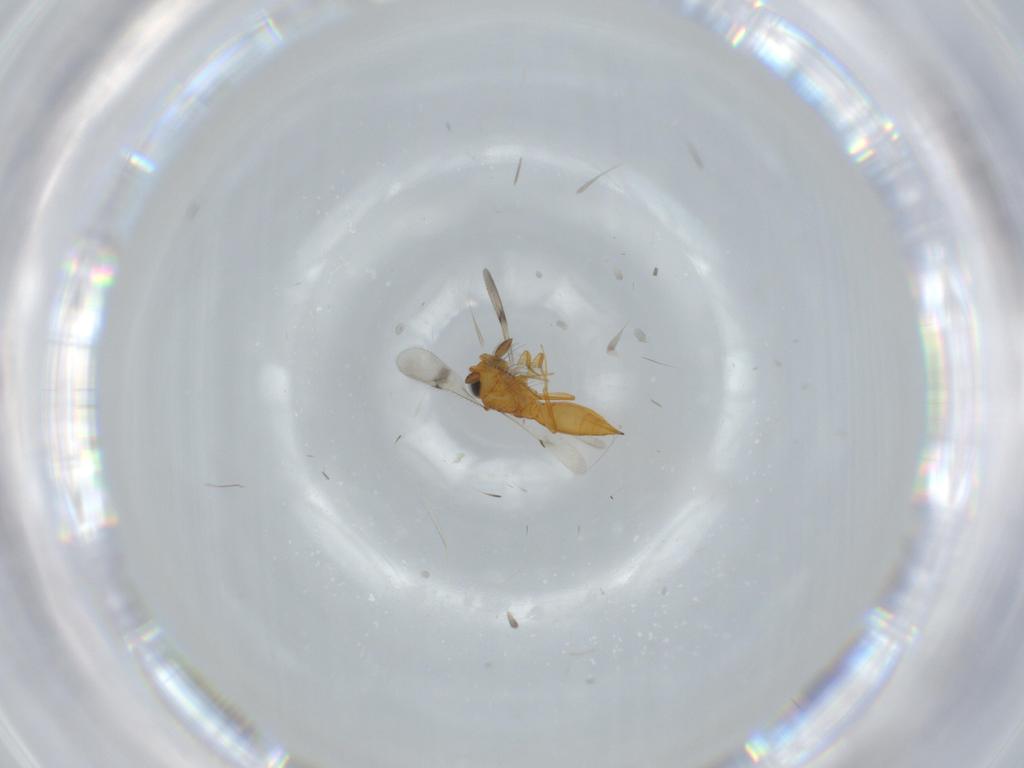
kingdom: Animalia
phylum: Arthropoda
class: Insecta
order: Hymenoptera
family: Scelionidae
